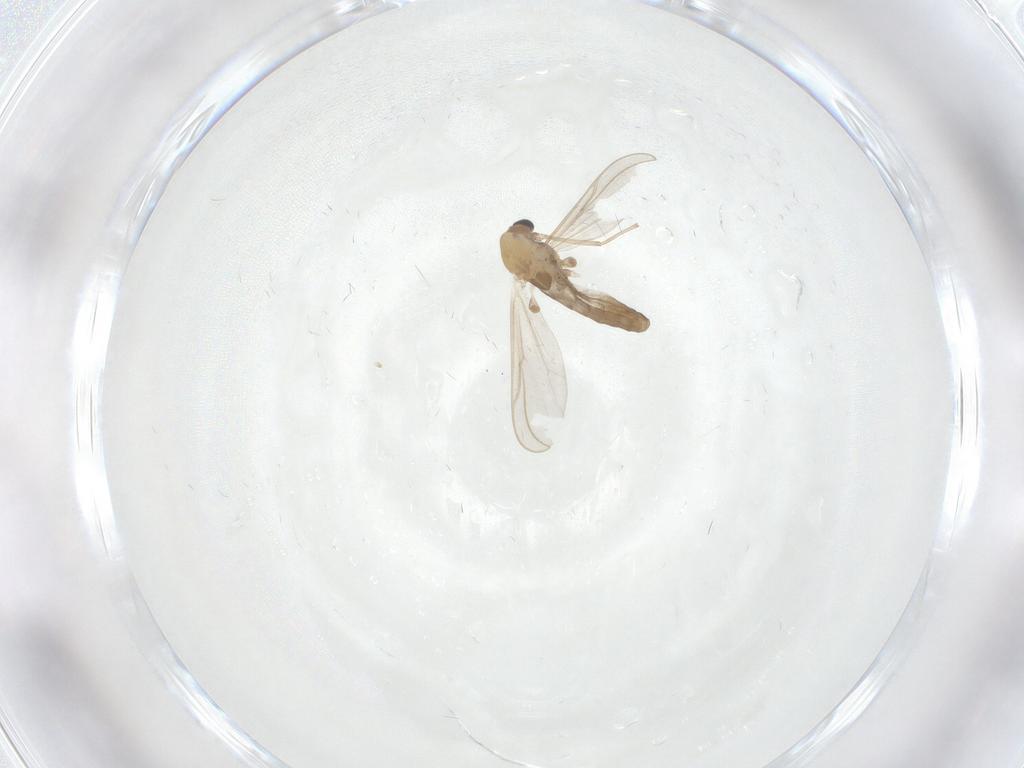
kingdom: Animalia
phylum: Arthropoda
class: Insecta
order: Diptera
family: Chironomidae
